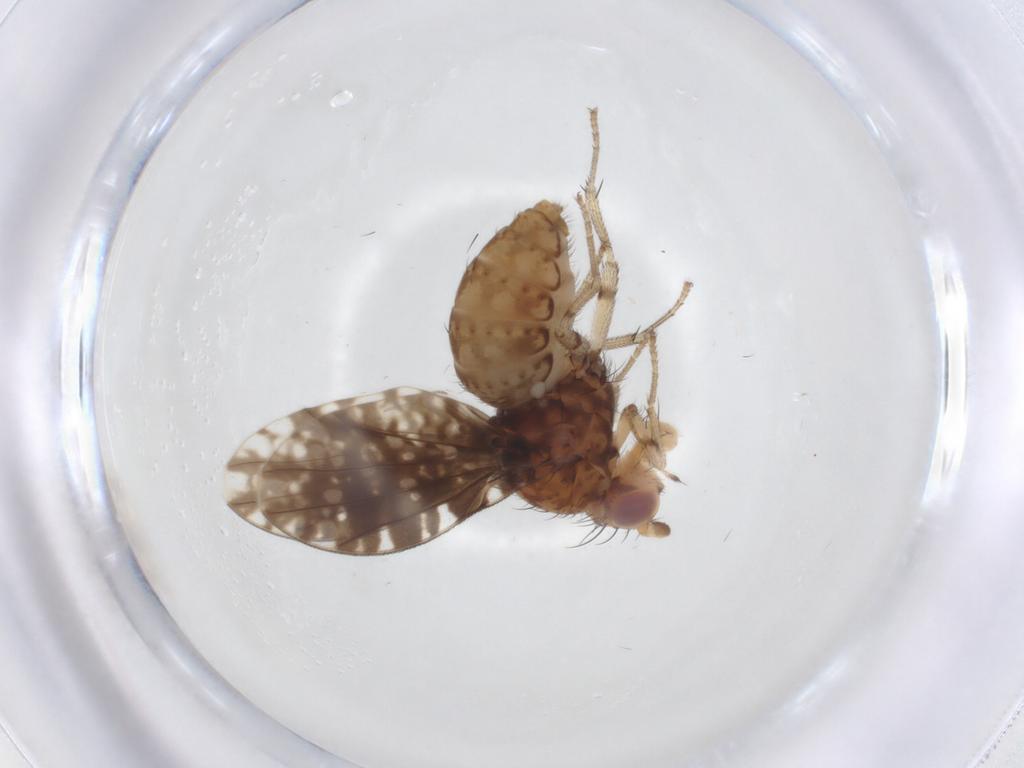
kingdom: Animalia
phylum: Arthropoda
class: Insecta
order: Diptera
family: Lauxaniidae
